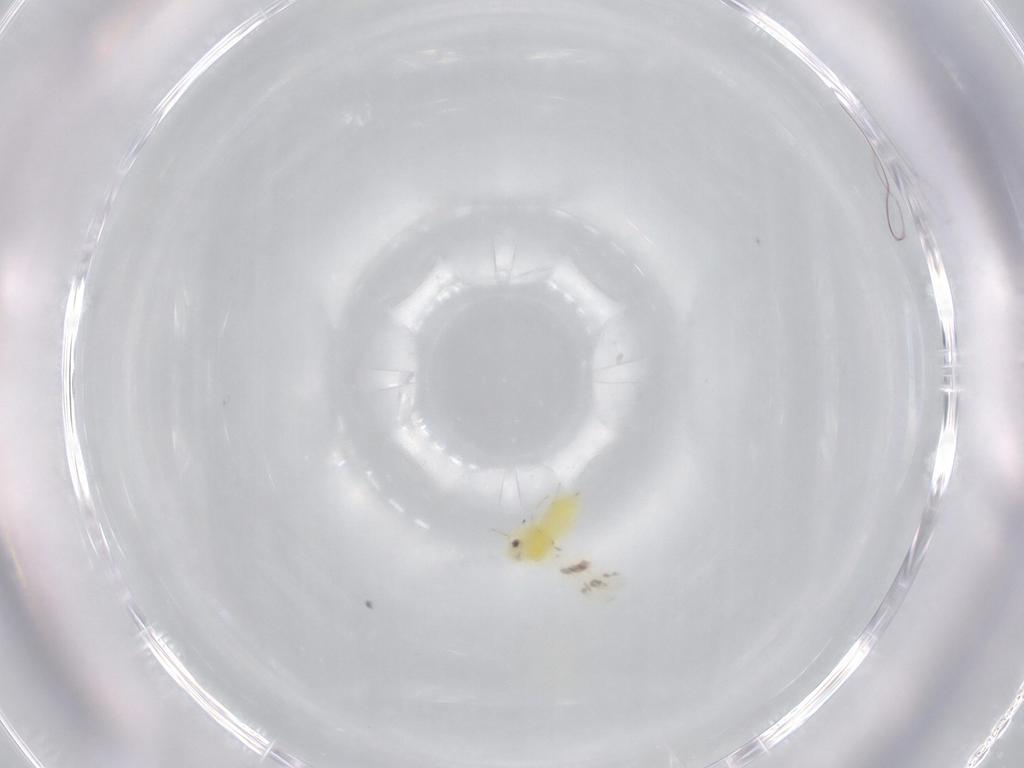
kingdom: Animalia
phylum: Arthropoda
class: Insecta
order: Hemiptera
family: Aleyrodidae
